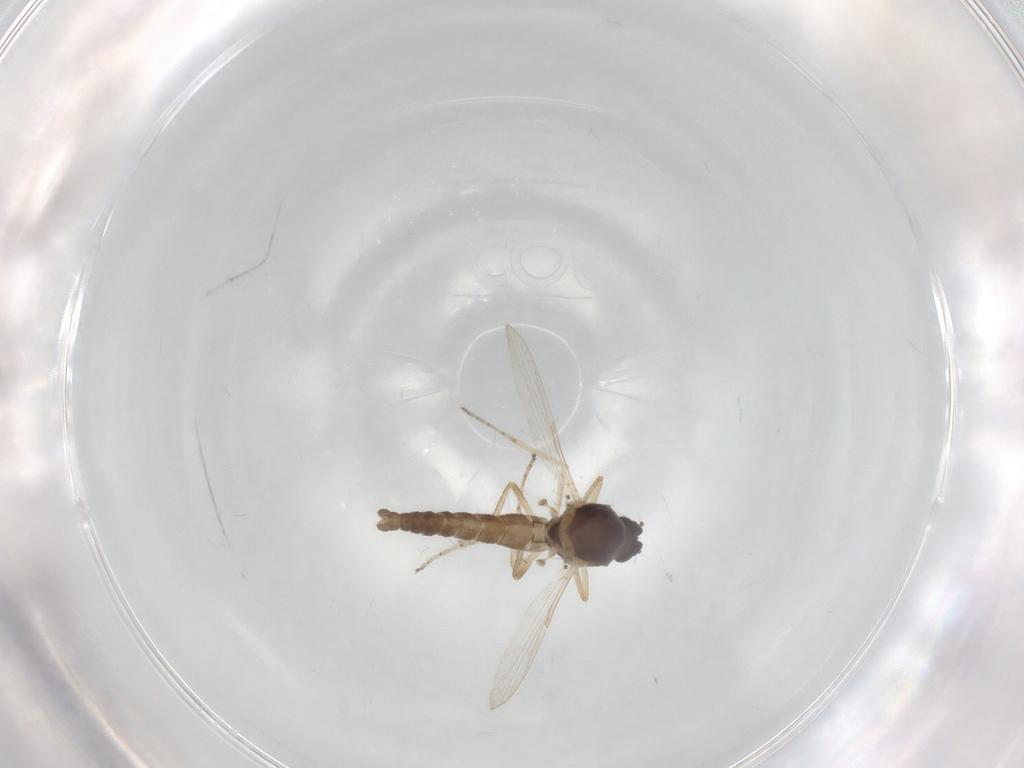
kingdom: Animalia
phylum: Arthropoda
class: Insecta
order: Diptera
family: Ceratopogonidae
